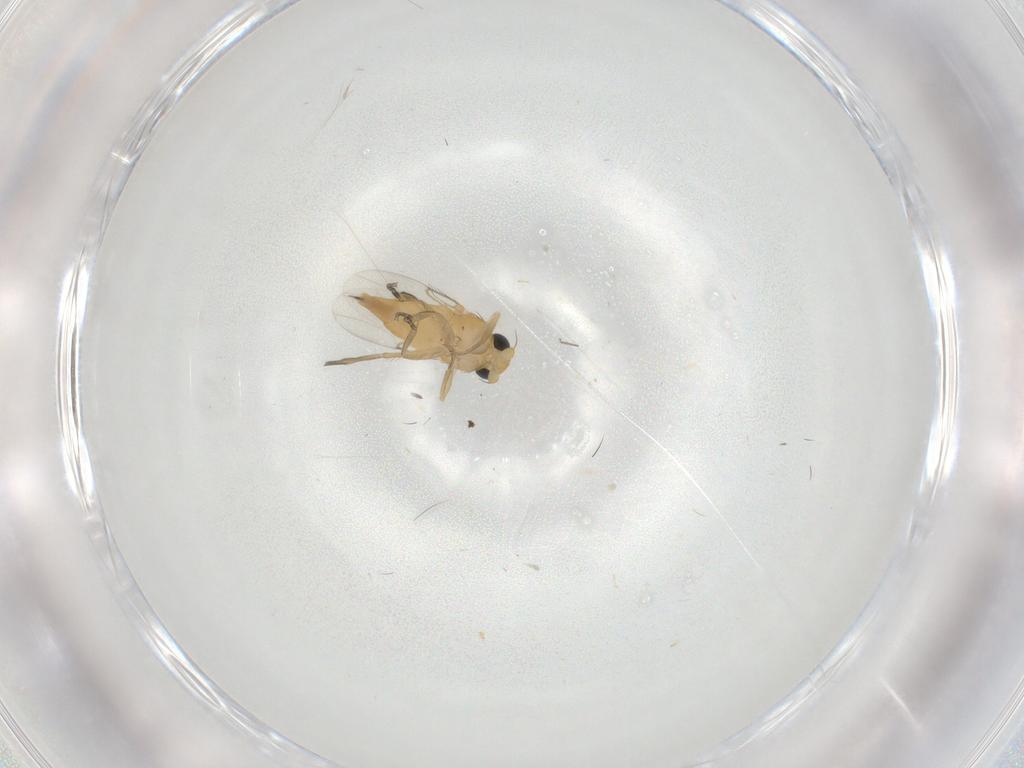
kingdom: Animalia
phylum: Arthropoda
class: Insecta
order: Diptera
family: Phoridae
